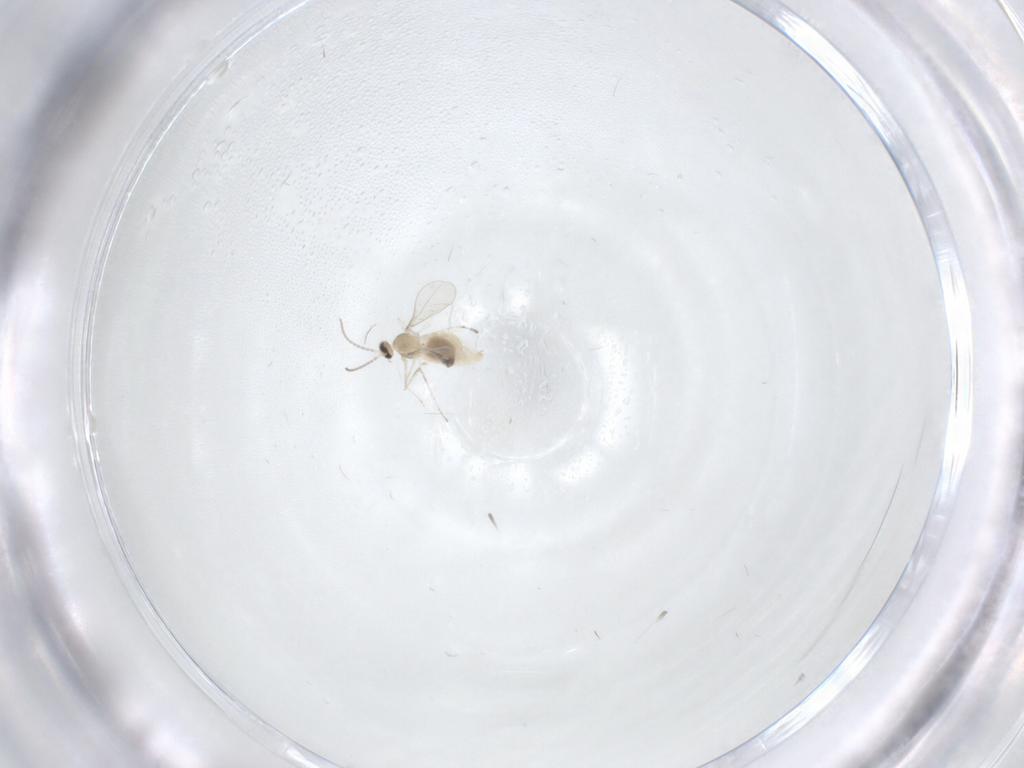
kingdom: Animalia
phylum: Arthropoda
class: Insecta
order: Diptera
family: Cecidomyiidae
